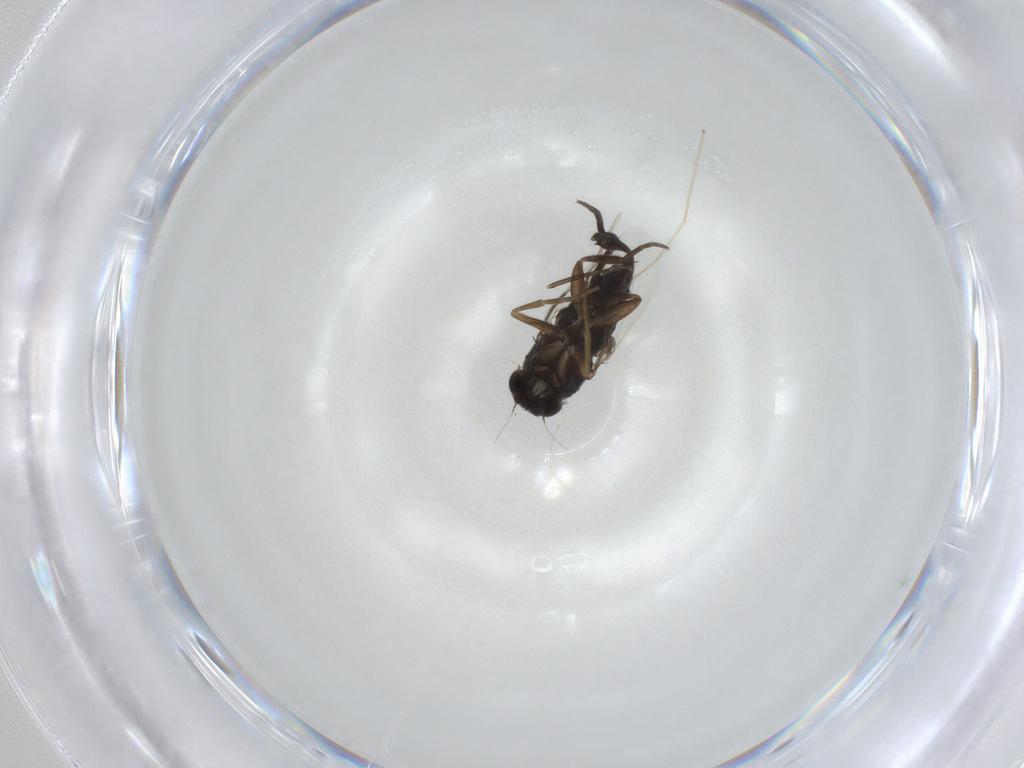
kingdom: Animalia
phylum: Arthropoda
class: Insecta
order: Diptera
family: Phoridae
